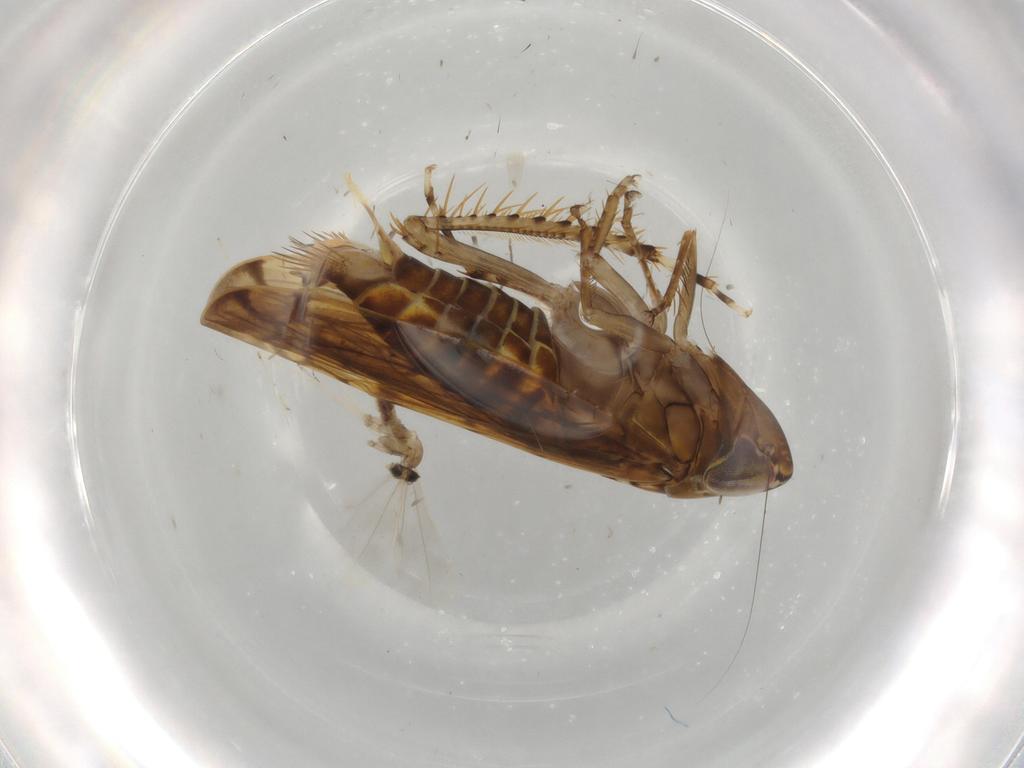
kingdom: Animalia
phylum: Arthropoda
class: Insecta
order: Hemiptera
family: Cicadellidae
